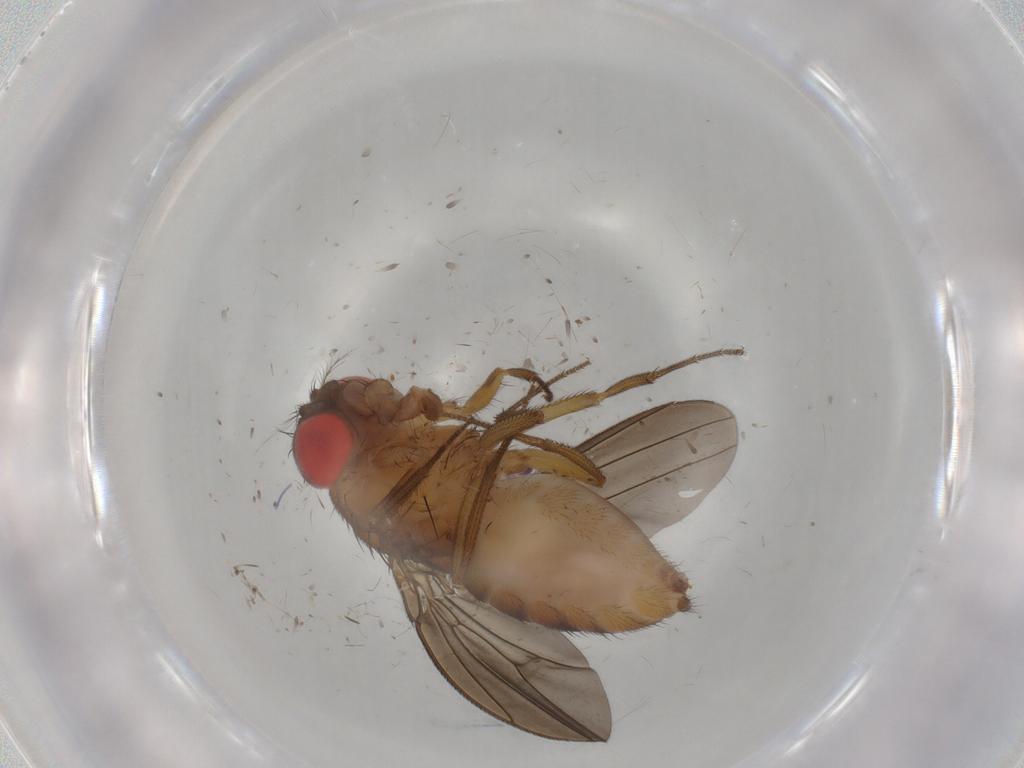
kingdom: Animalia
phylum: Arthropoda
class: Insecta
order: Diptera
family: Drosophilidae
